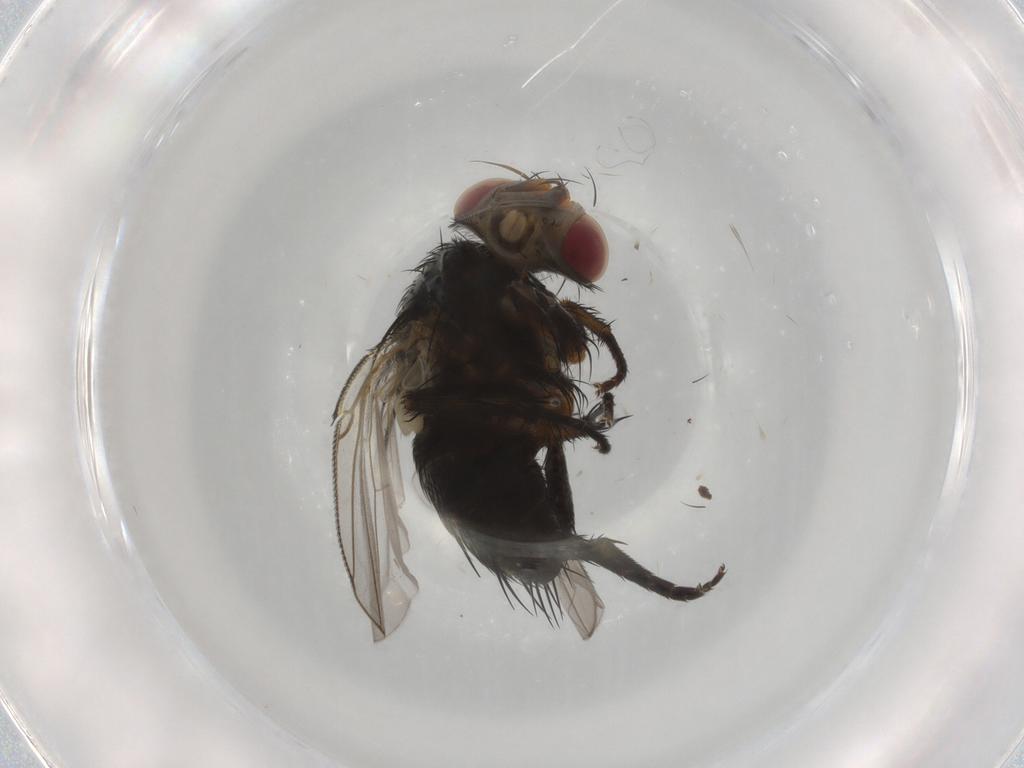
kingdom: Animalia
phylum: Arthropoda
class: Insecta
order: Diptera
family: Tachinidae
